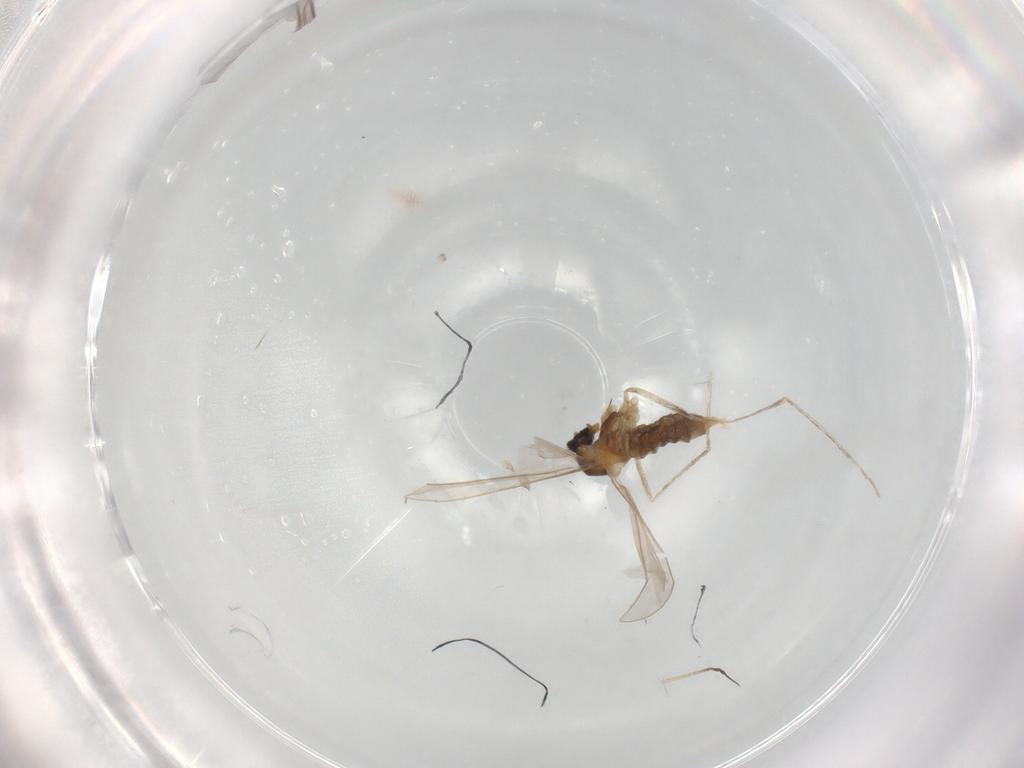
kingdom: Animalia
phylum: Arthropoda
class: Insecta
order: Diptera
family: Cecidomyiidae
